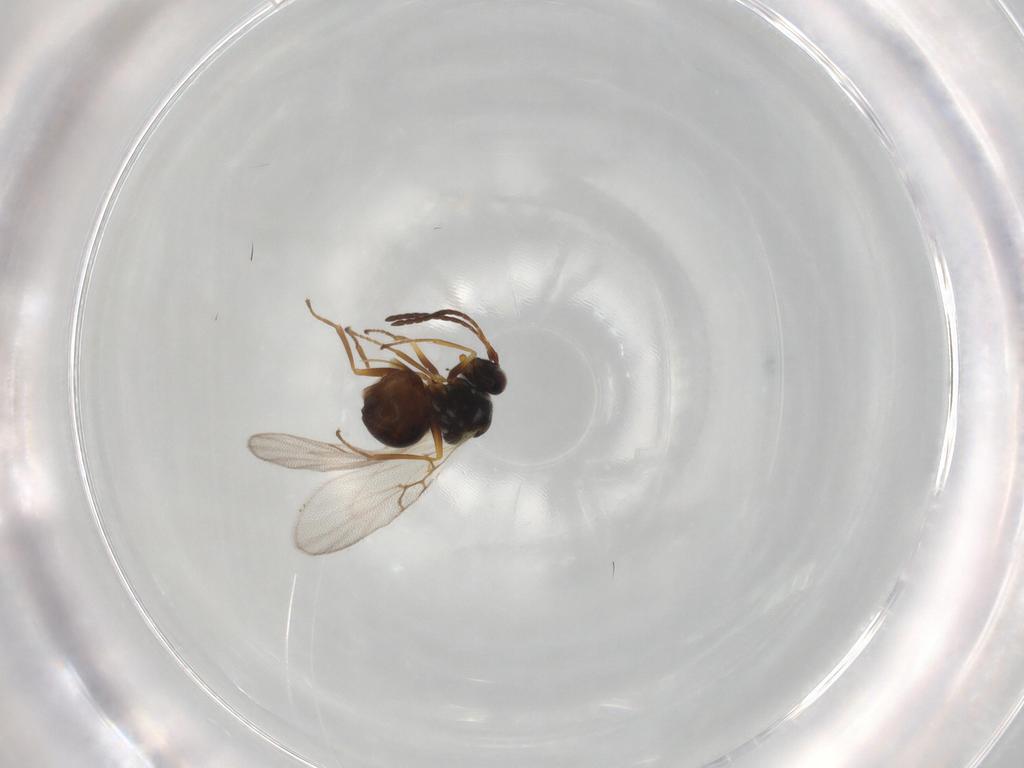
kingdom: Animalia
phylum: Arthropoda
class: Insecta
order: Hymenoptera
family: Figitidae
